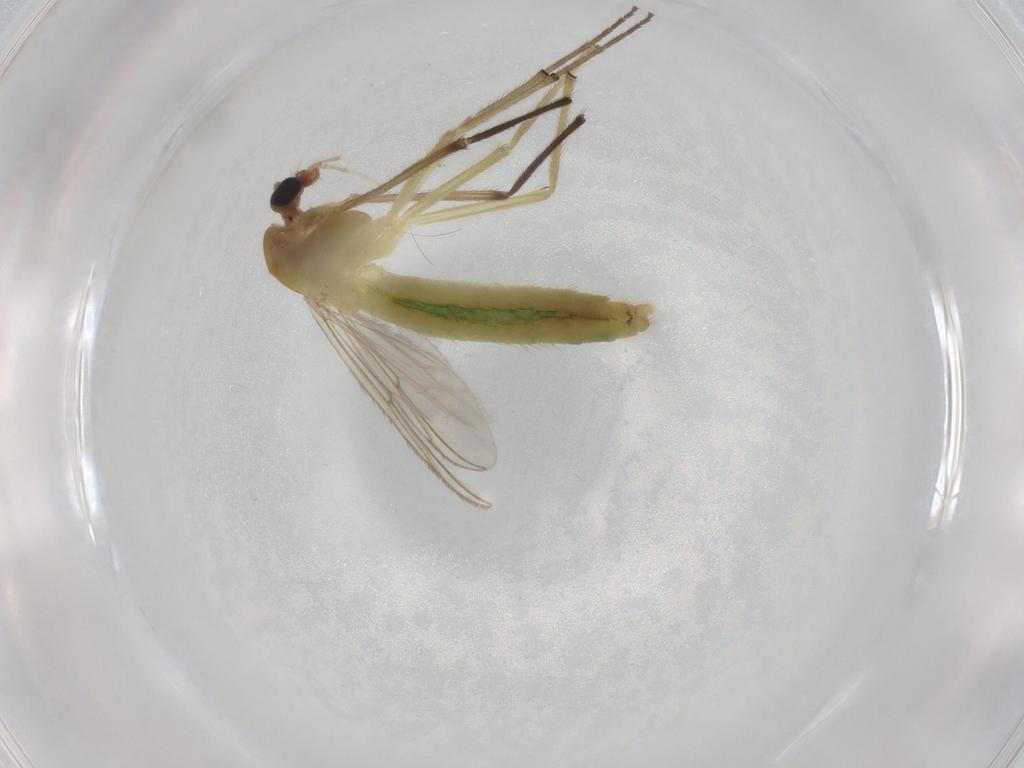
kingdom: Animalia
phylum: Arthropoda
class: Insecta
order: Diptera
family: Chironomidae
